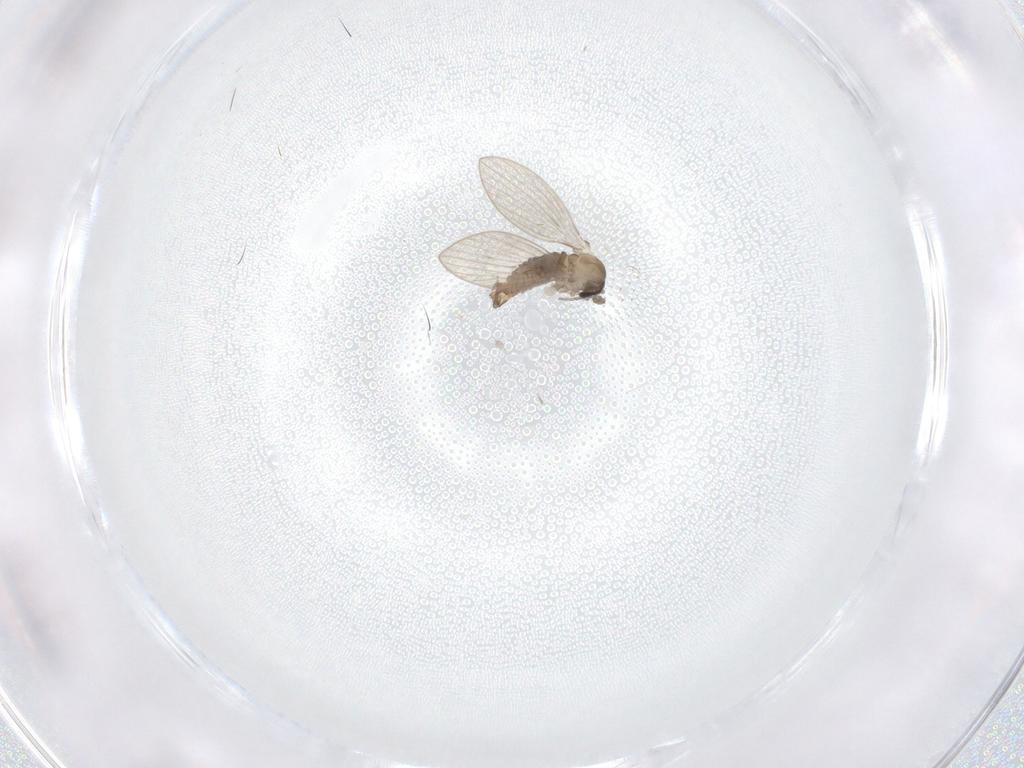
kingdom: Animalia
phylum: Arthropoda
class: Insecta
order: Diptera
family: Psychodidae
